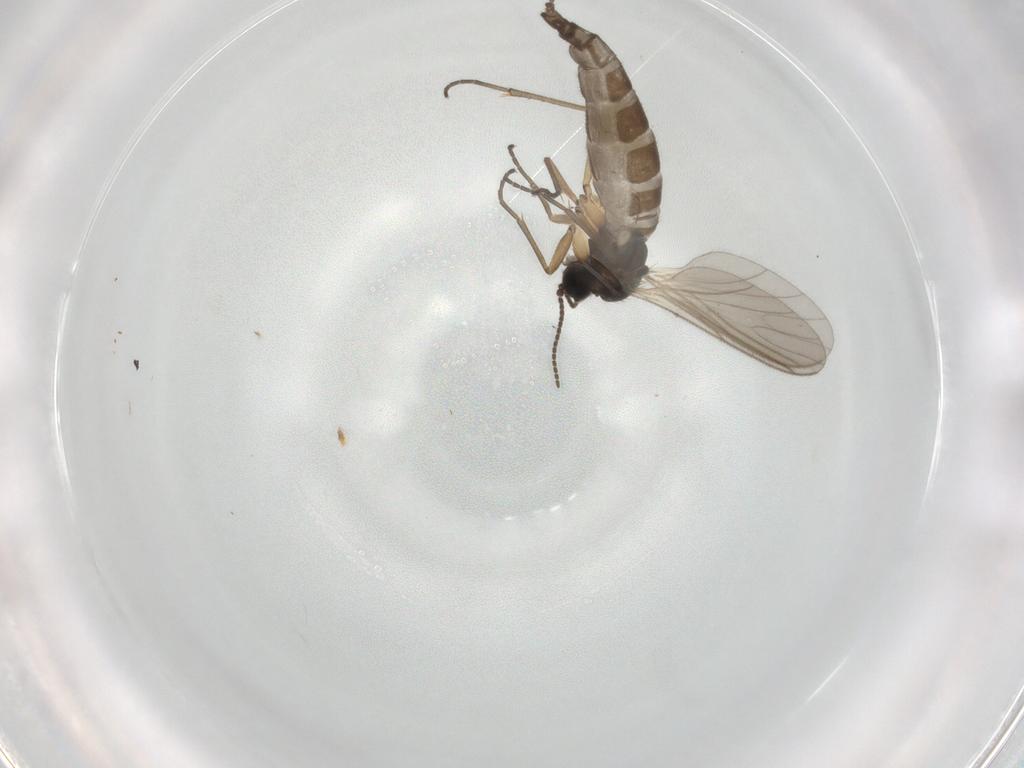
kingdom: Animalia
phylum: Arthropoda
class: Insecta
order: Diptera
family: Sciaridae
